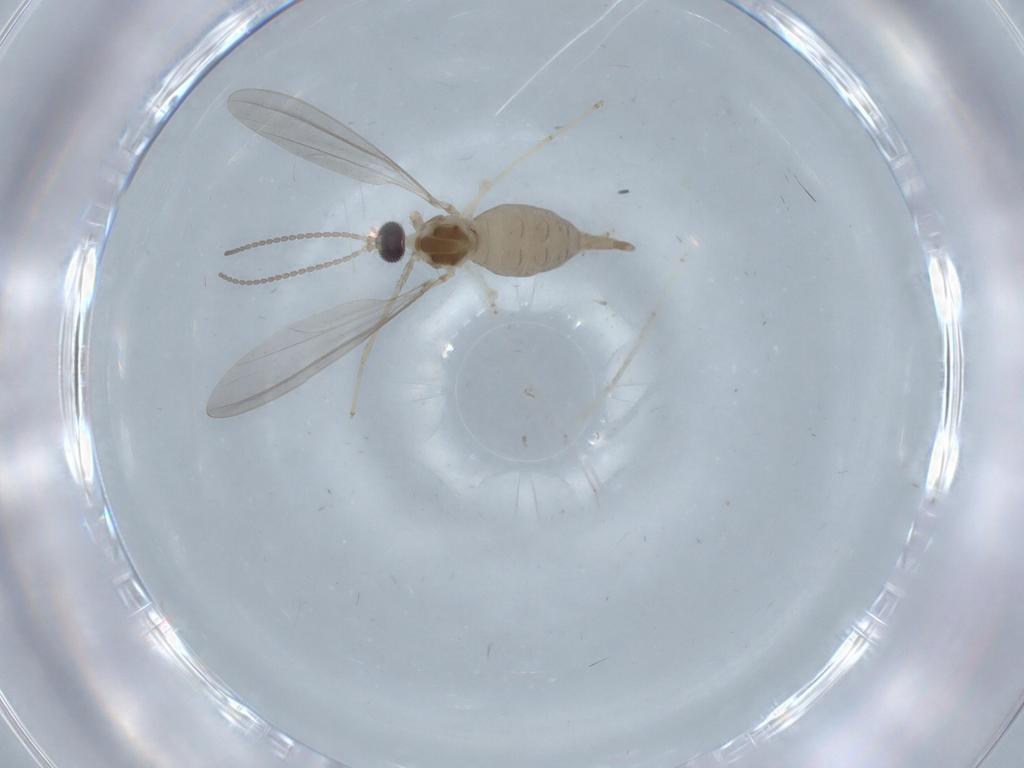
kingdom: Animalia
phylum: Arthropoda
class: Insecta
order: Diptera
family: Cecidomyiidae
